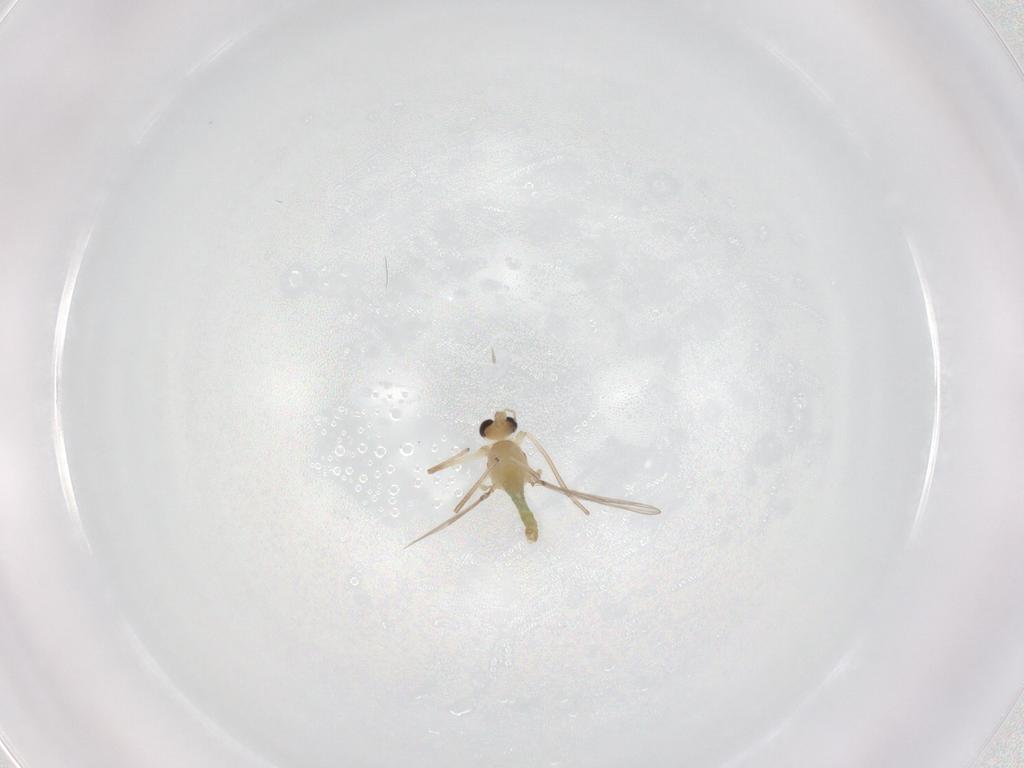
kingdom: Animalia
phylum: Arthropoda
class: Insecta
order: Diptera
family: Chironomidae
